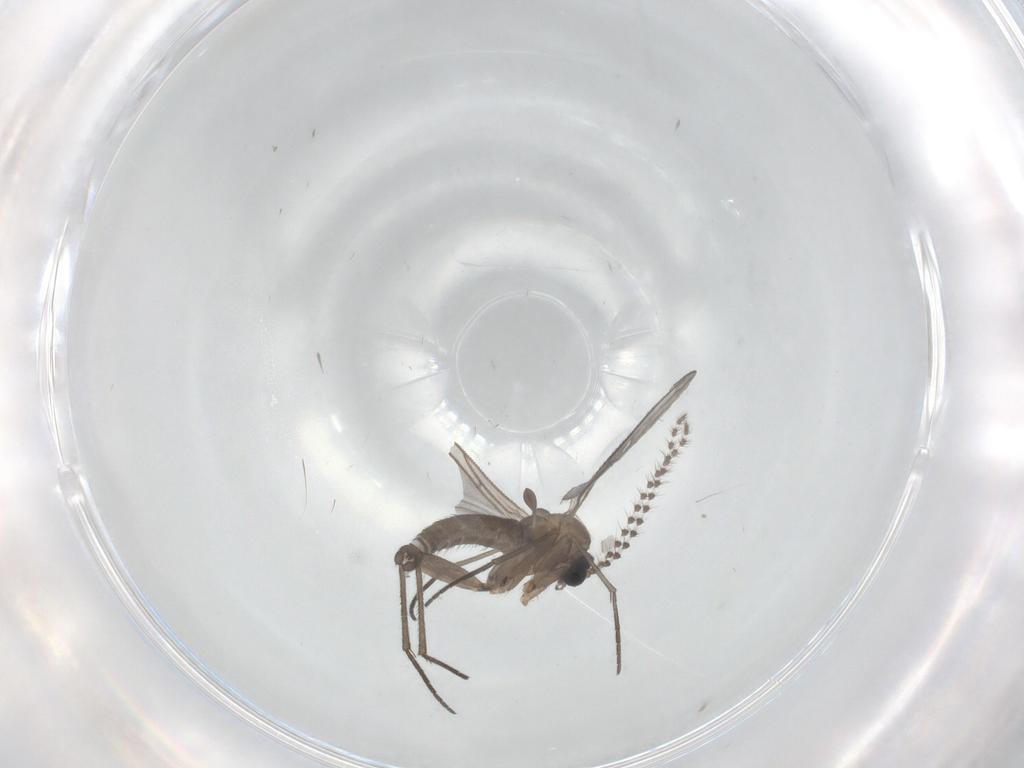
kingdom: Animalia
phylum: Arthropoda
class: Insecta
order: Diptera
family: Sciaridae
